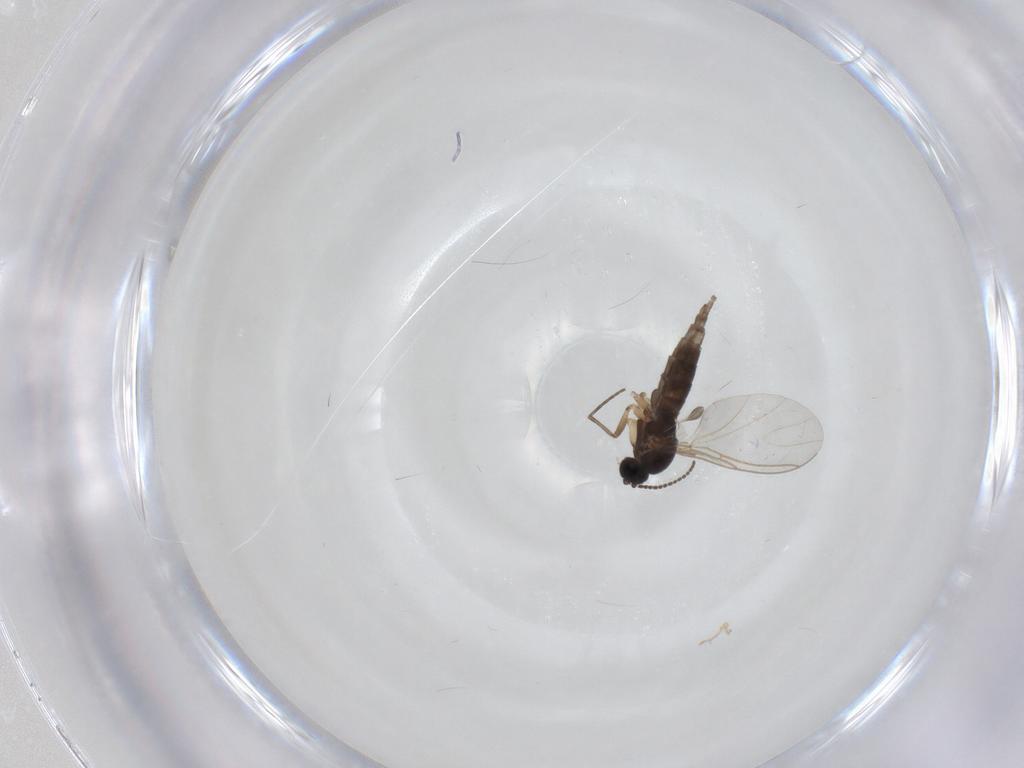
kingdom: Animalia
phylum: Arthropoda
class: Insecta
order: Diptera
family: Sciaridae
